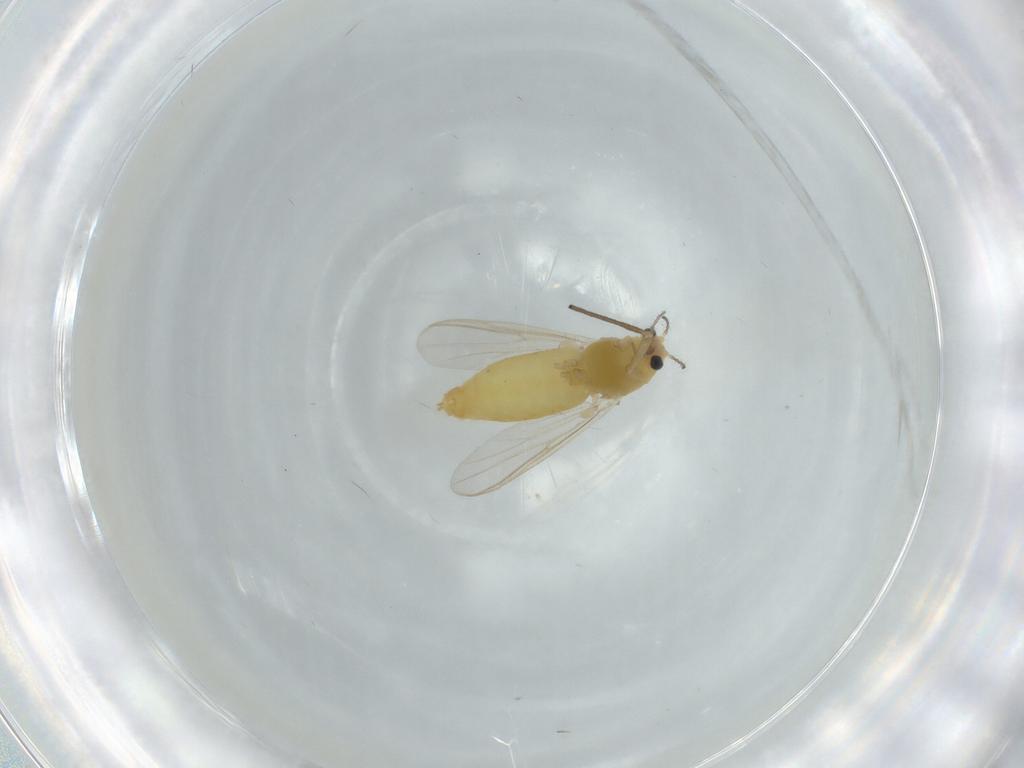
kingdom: Animalia
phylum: Arthropoda
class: Insecta
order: Diptera
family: Chironomidae
